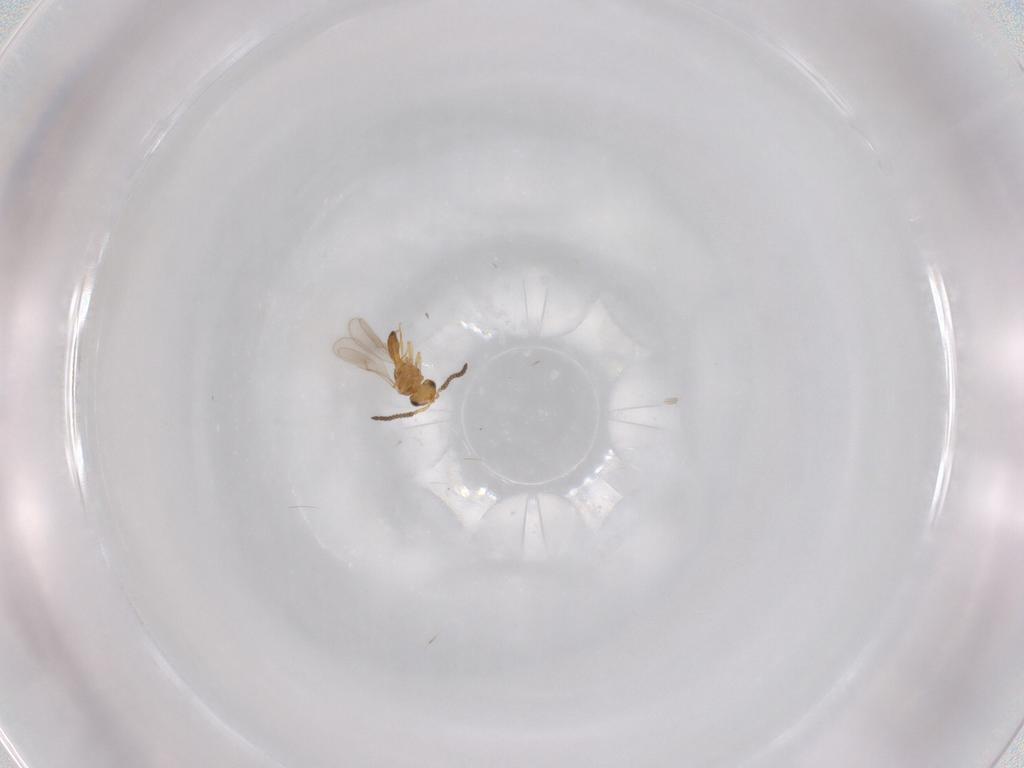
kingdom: Animalia
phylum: Arthropoda
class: Insecta
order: Hymenoptera
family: Scelionidae
